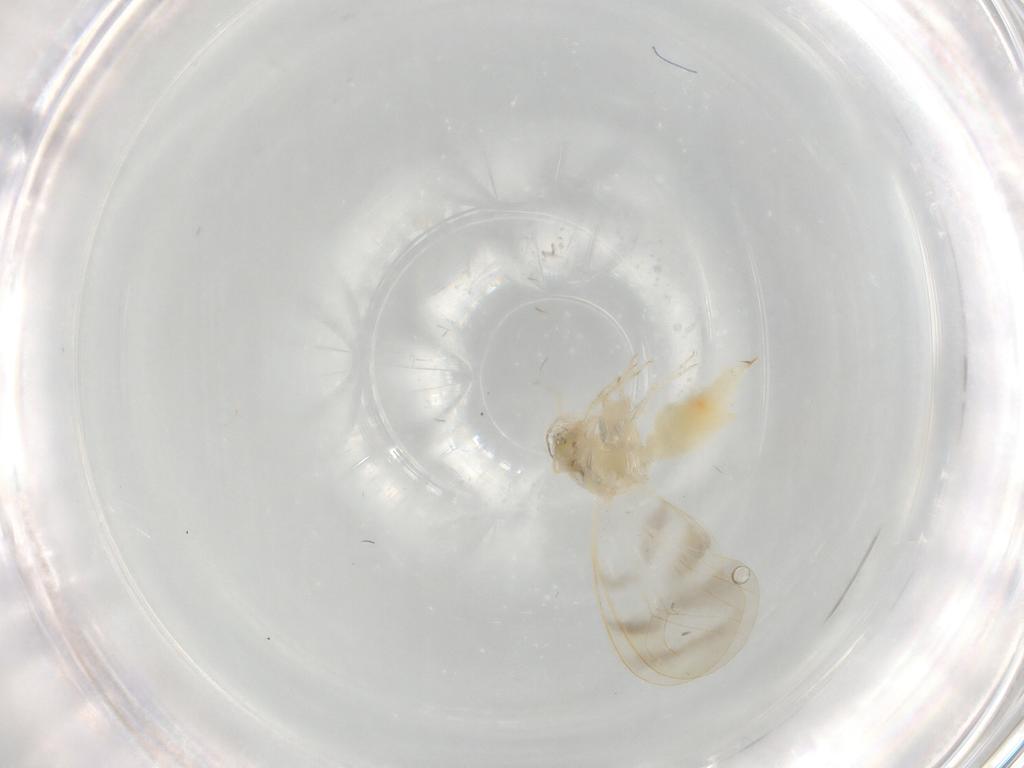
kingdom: Animalia
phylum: Arthropoda
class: Insecta
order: Hemiptera
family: Aleyrodidae
